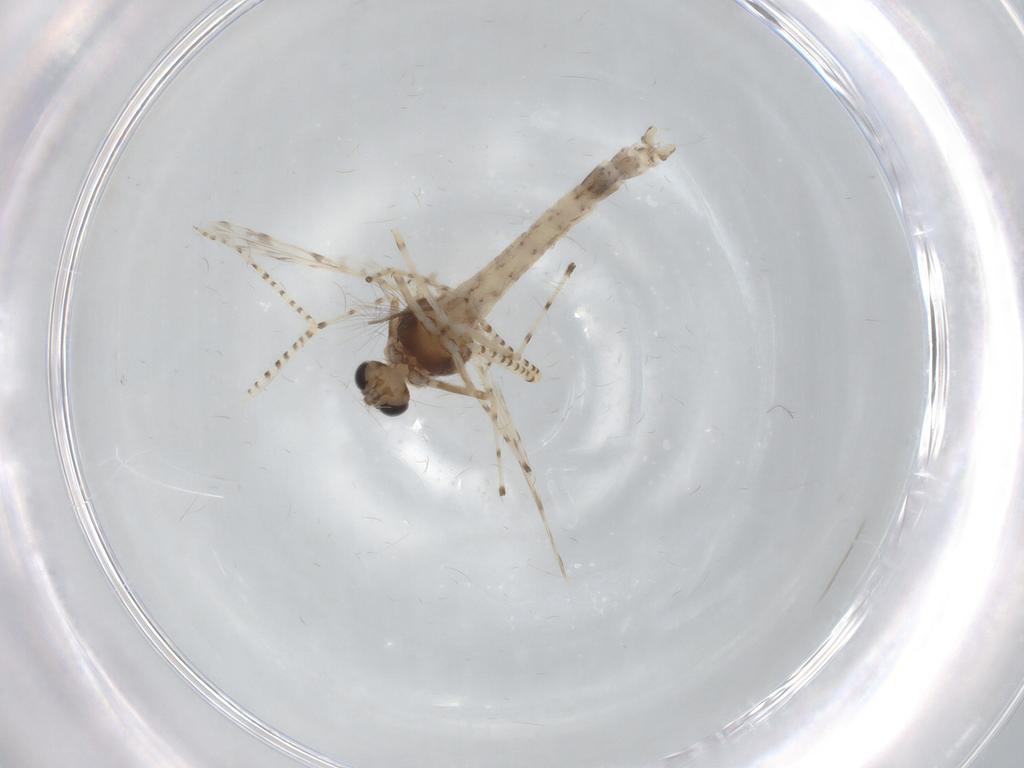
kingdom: Animalia
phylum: Arthropoda
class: Insecta
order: Diptera
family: Chironomidae
